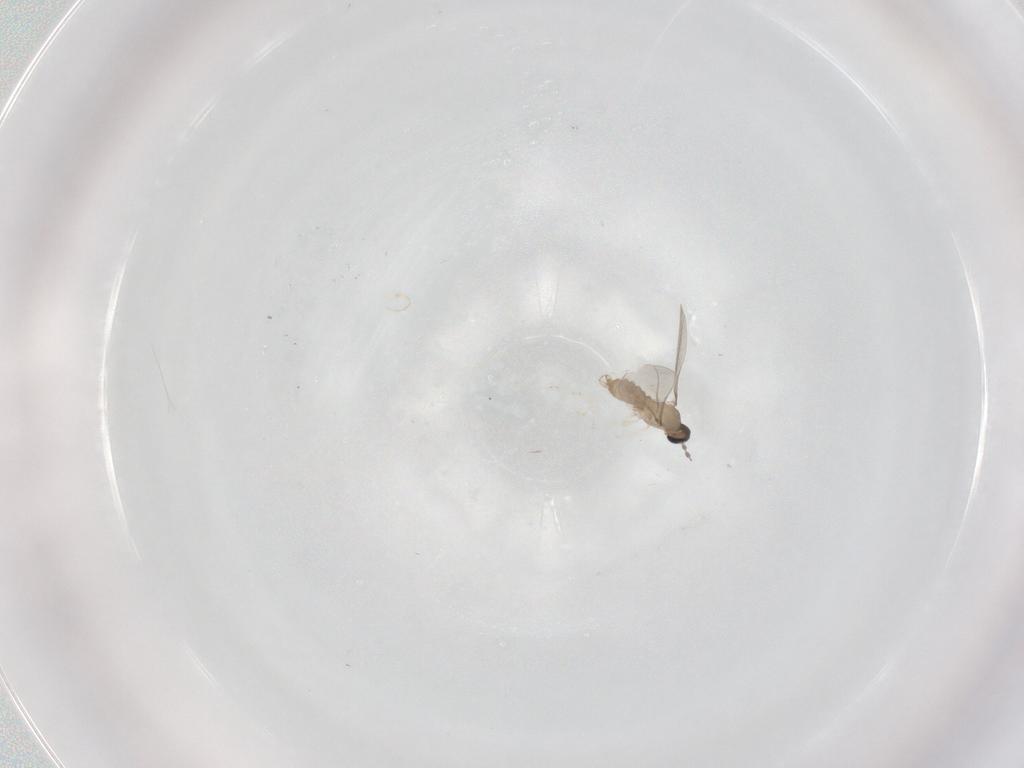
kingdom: Animalia
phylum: Arthropoda
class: Insecta
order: Diptera
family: Cecidomyiidae
